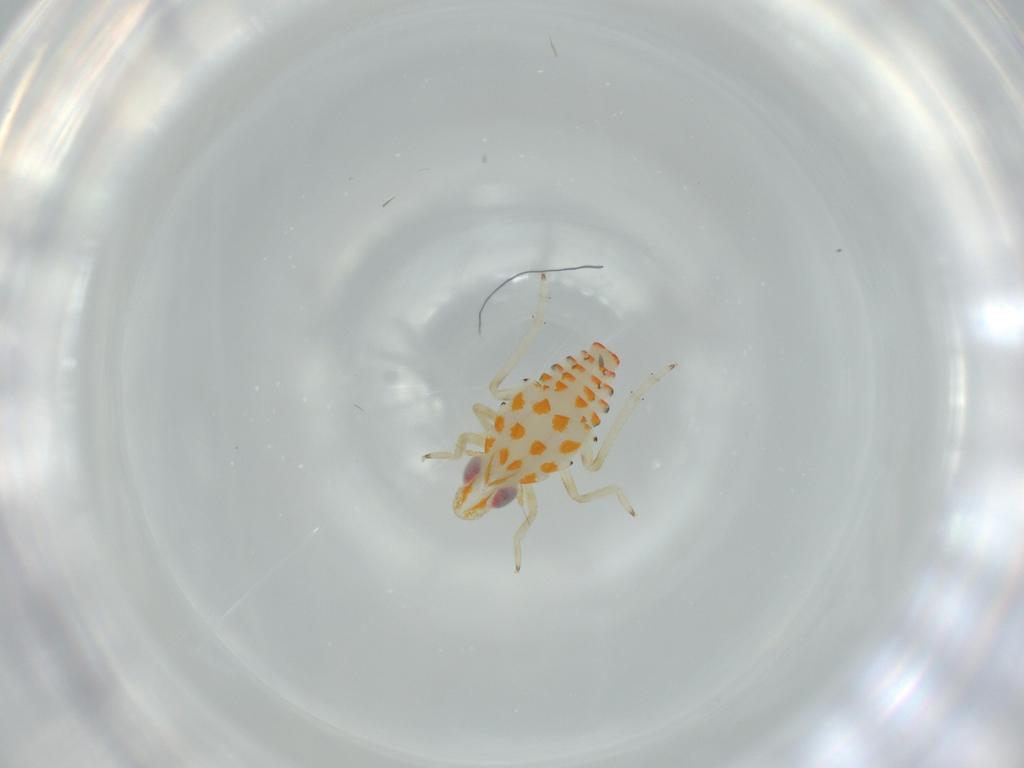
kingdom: Animalia
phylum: Arthropoda
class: Insecta
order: Hemiptera
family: Tropiduchidae
